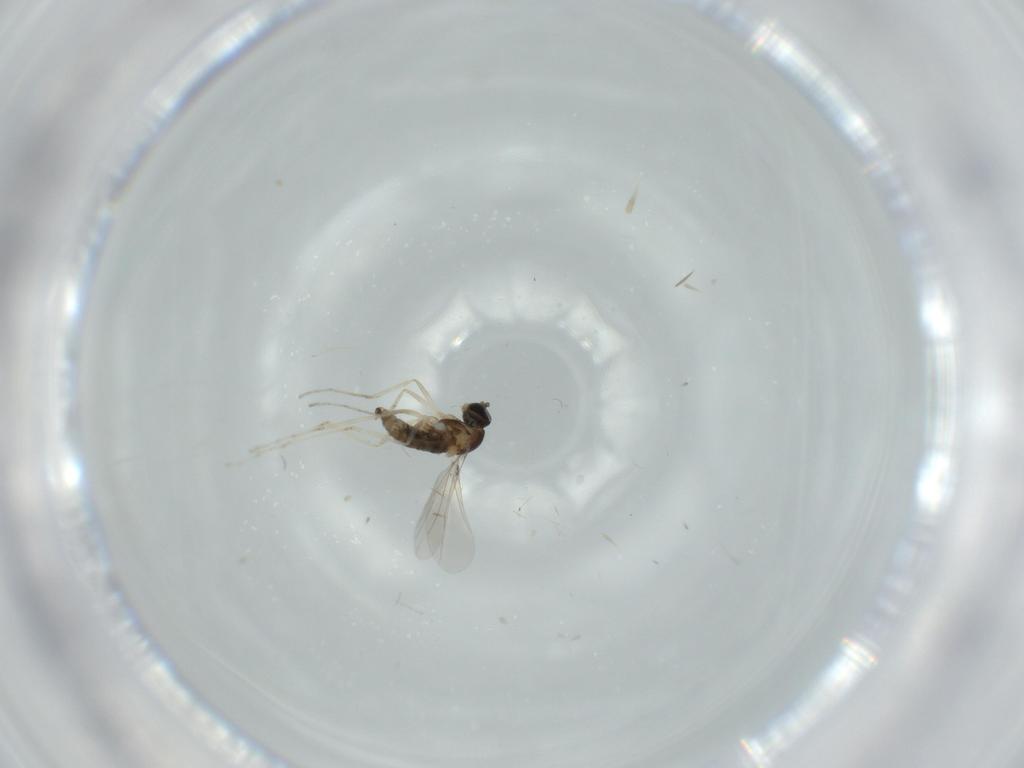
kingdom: Animalia
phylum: Arthropoda
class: Insecta
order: Diptera
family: Cecidomyiidae
